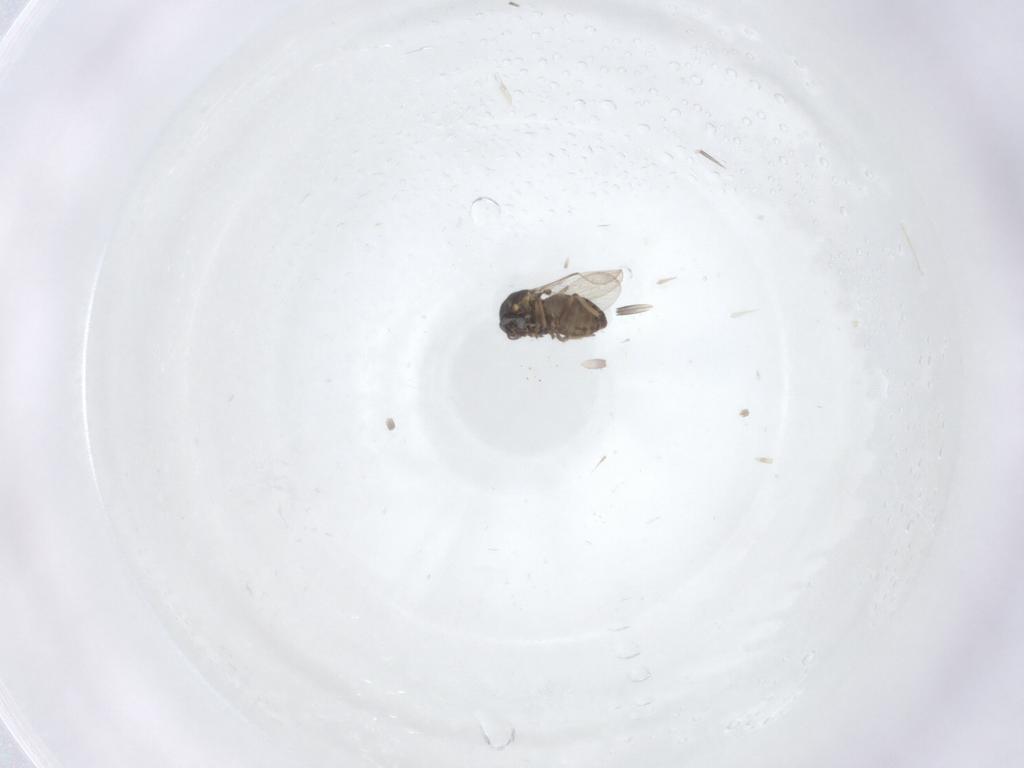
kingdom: Animalia
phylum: Arthropoda
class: Insecta
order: Diptera
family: Ceratopogonidae
